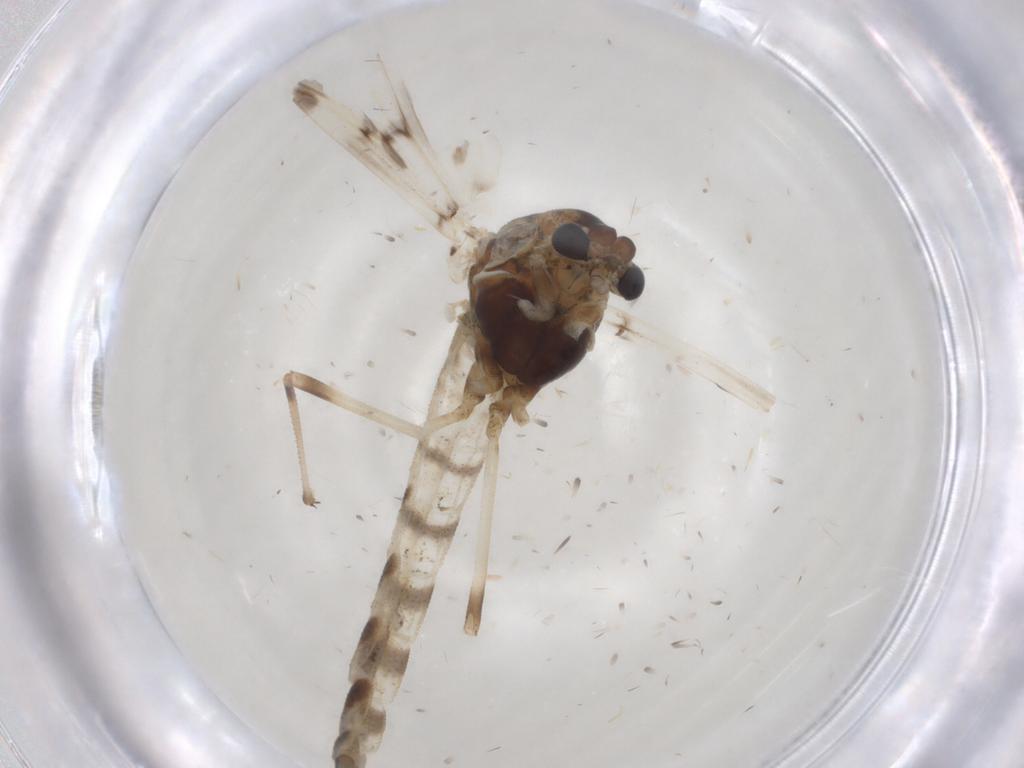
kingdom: Animalia
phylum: Arthropoda
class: Insecta
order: Diptera
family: Chironomidae
